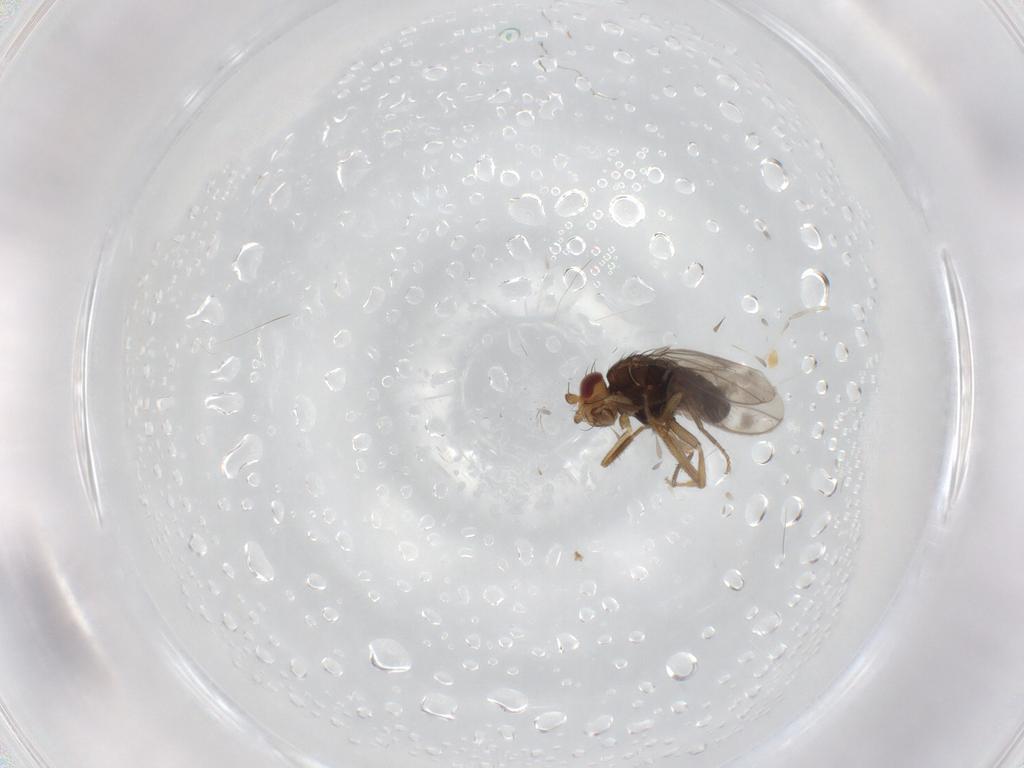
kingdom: Animalia
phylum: Arthropoda
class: Insecta
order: Diptera
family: Sphaeroceridae
